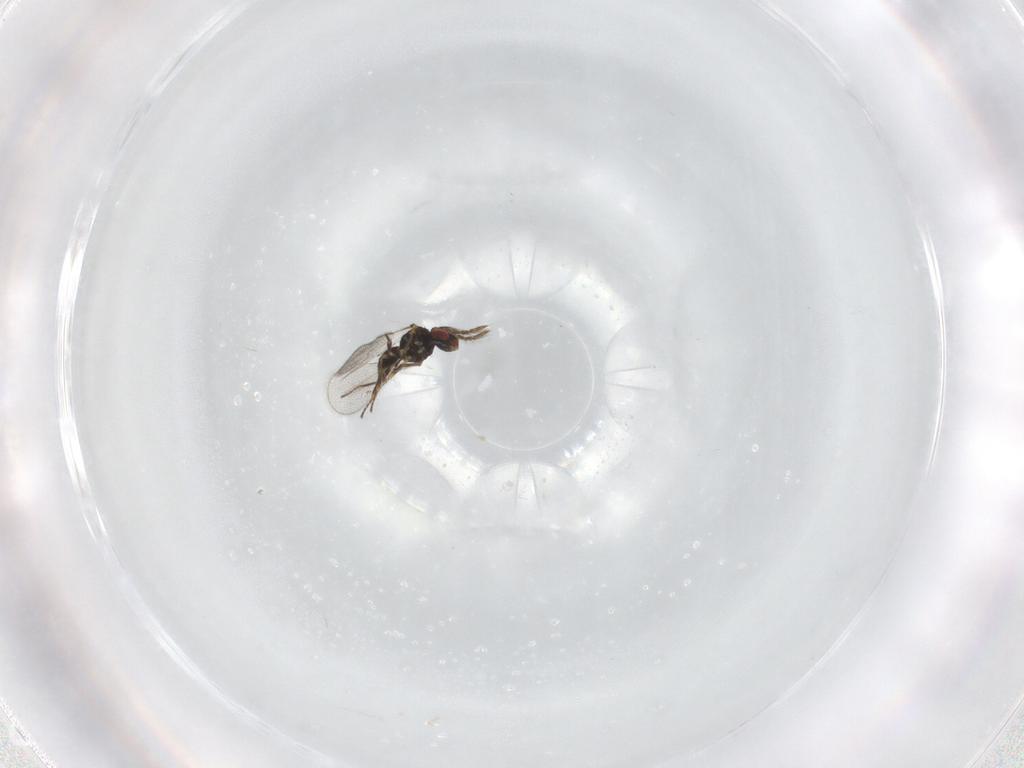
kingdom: Animalia
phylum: Arthropoda
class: Insecta
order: Hymenoptera
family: Eulophidae
